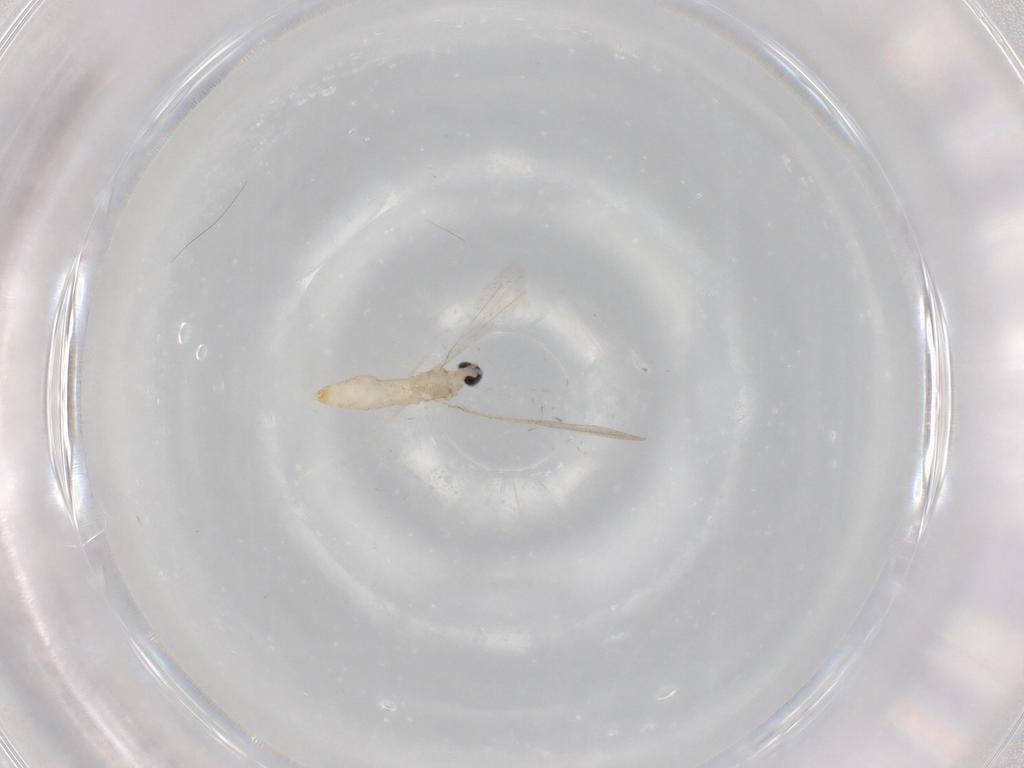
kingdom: Animalia
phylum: Arthropoda
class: Insecta
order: Diptera
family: Cecidomyiidae
